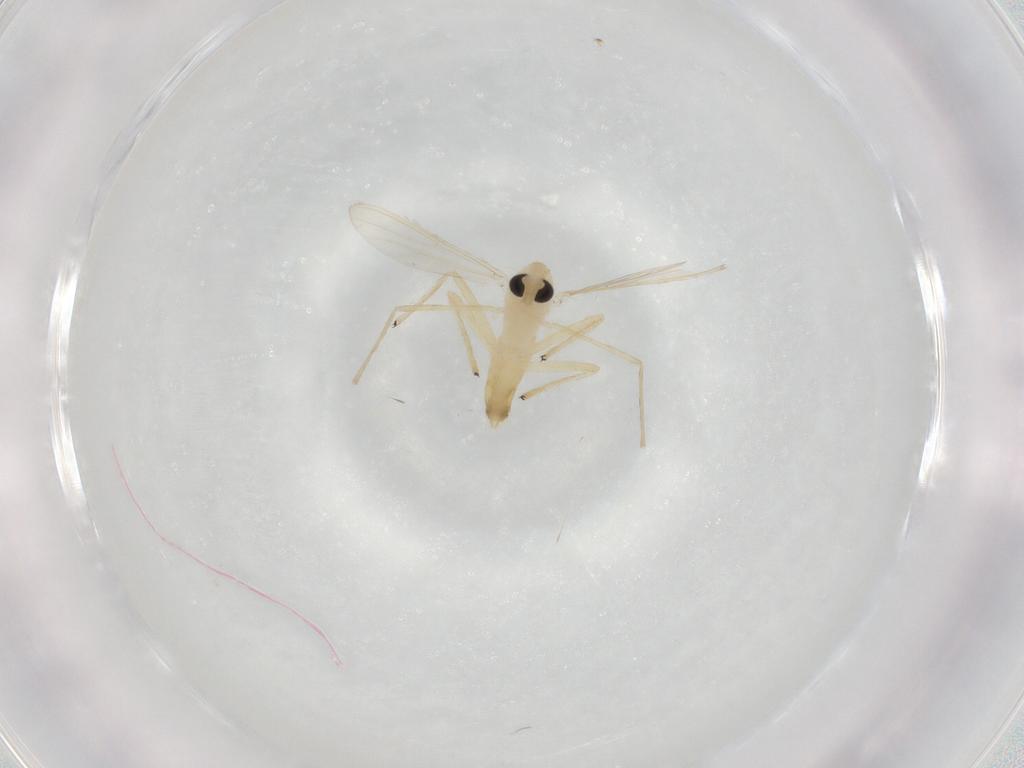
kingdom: Animalia
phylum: Arthropoda
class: Insecta
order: Diptera
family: Chironomidae
